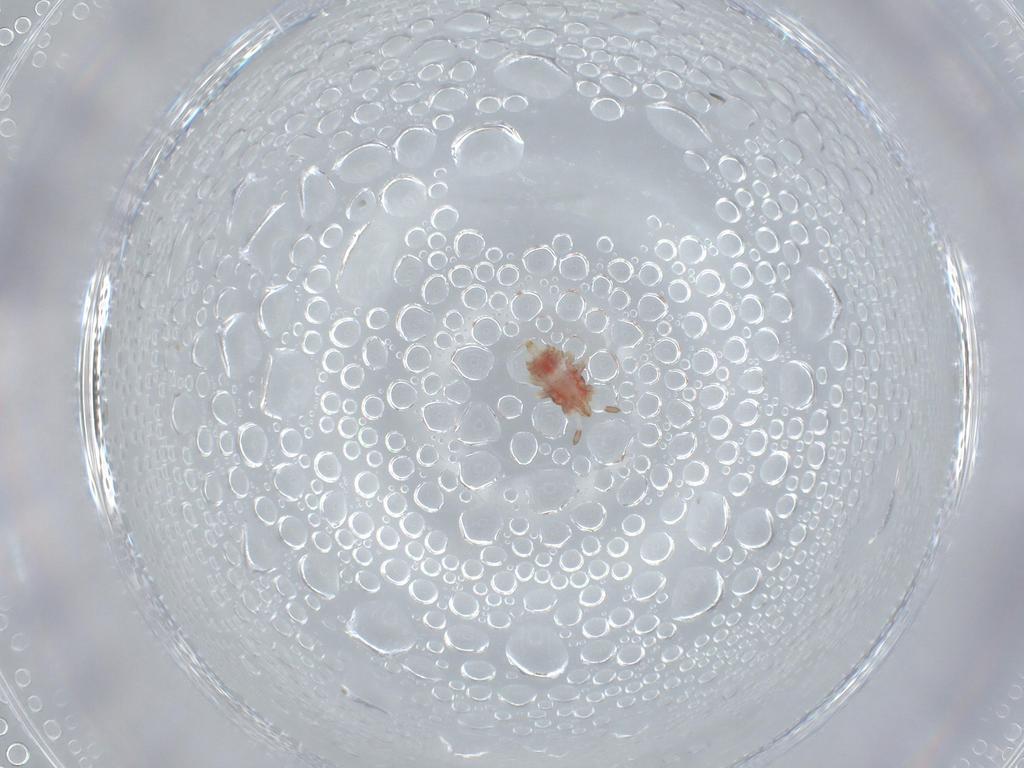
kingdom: Animalia
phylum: Arthropoda
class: Insecta
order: Hemiptera
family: Aradidae
